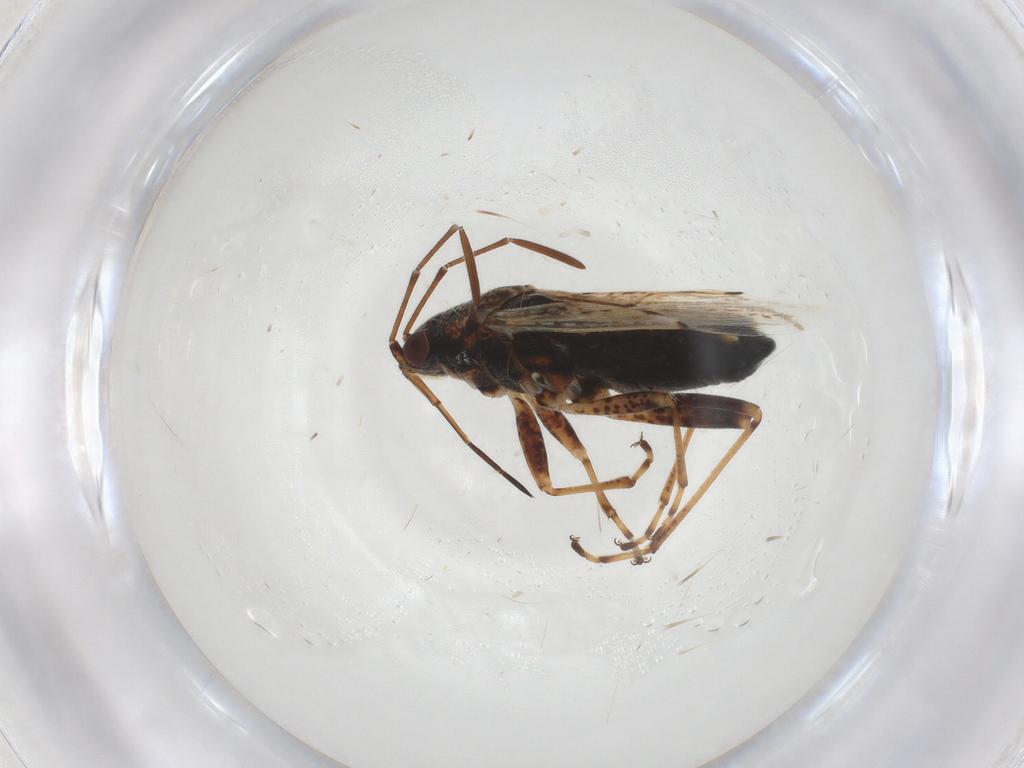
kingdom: Animalia
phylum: Arthropoda
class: Insecta
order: Hemiptera
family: Lygaeidae
